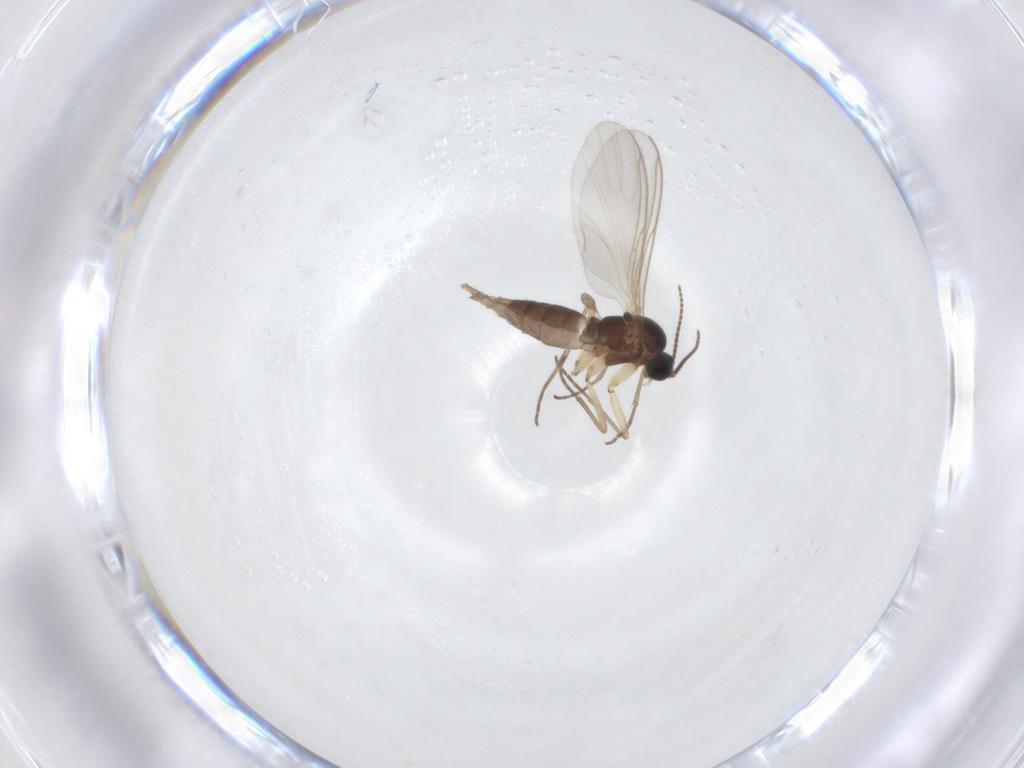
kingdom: Animalia
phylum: Arthropoda
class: Insecta
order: Diptera
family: Sciaridae
